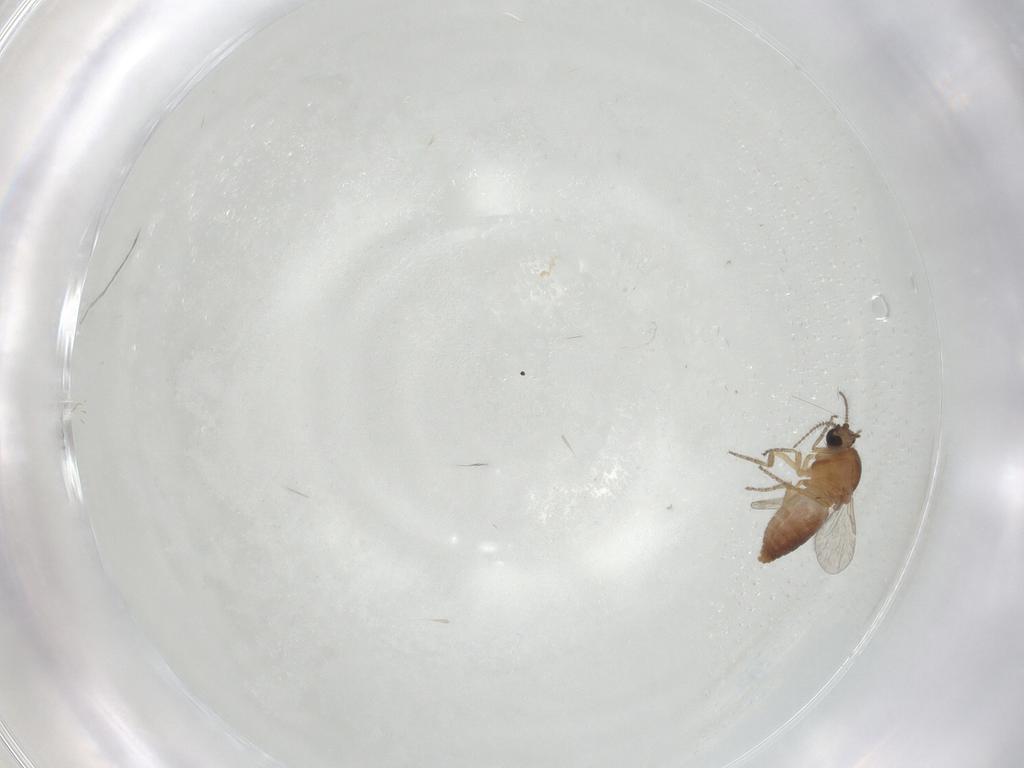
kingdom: Animalia
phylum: Arthropoda
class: Insecta
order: Diptera
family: Ceratopogonidae
